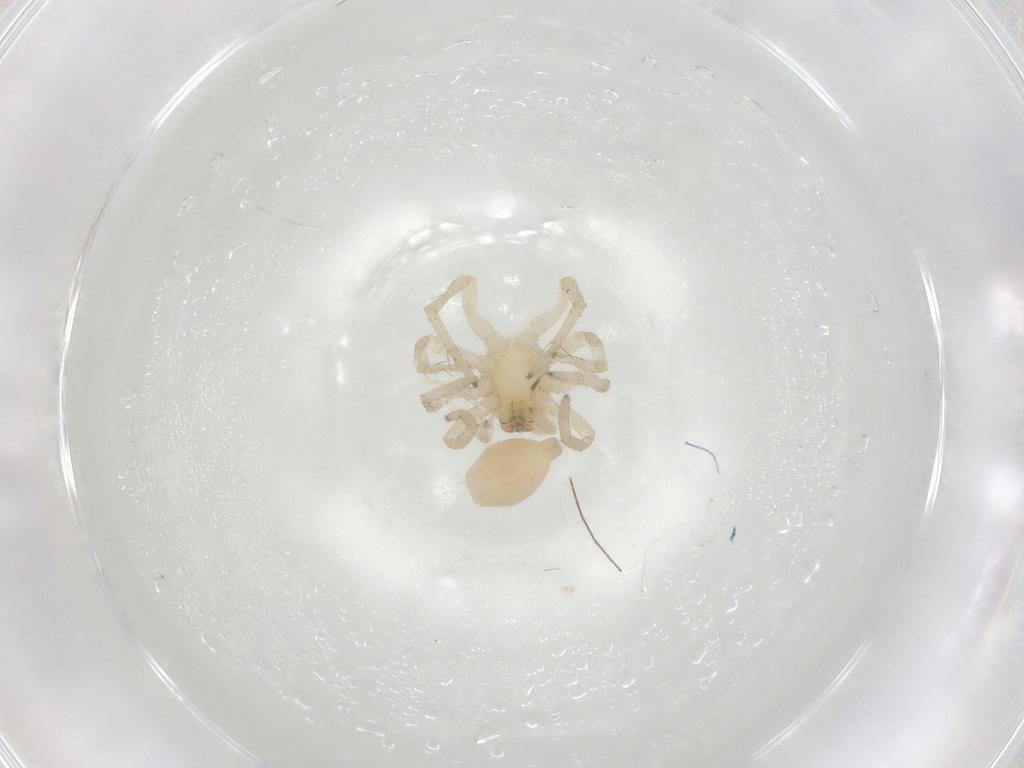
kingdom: Animalia
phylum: Arthropoda
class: Arachnida
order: Araneae
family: Clubionidae
